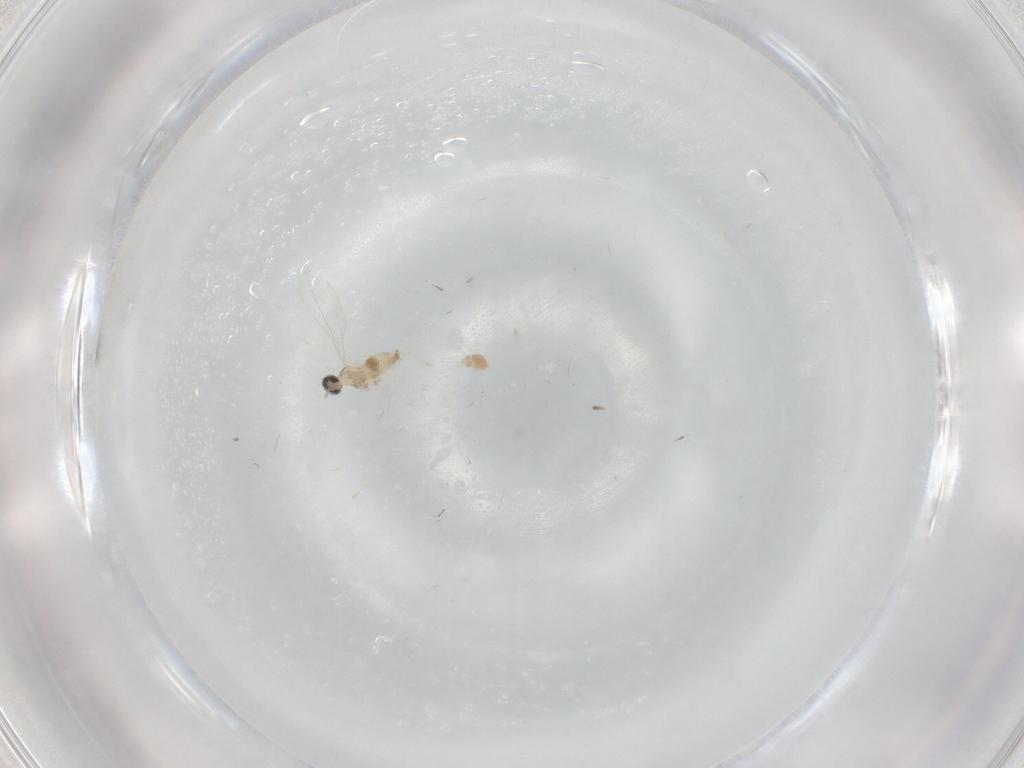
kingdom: Animalia
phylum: Arthropoda
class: Insecta
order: Diptera
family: Cecidomyiidae
